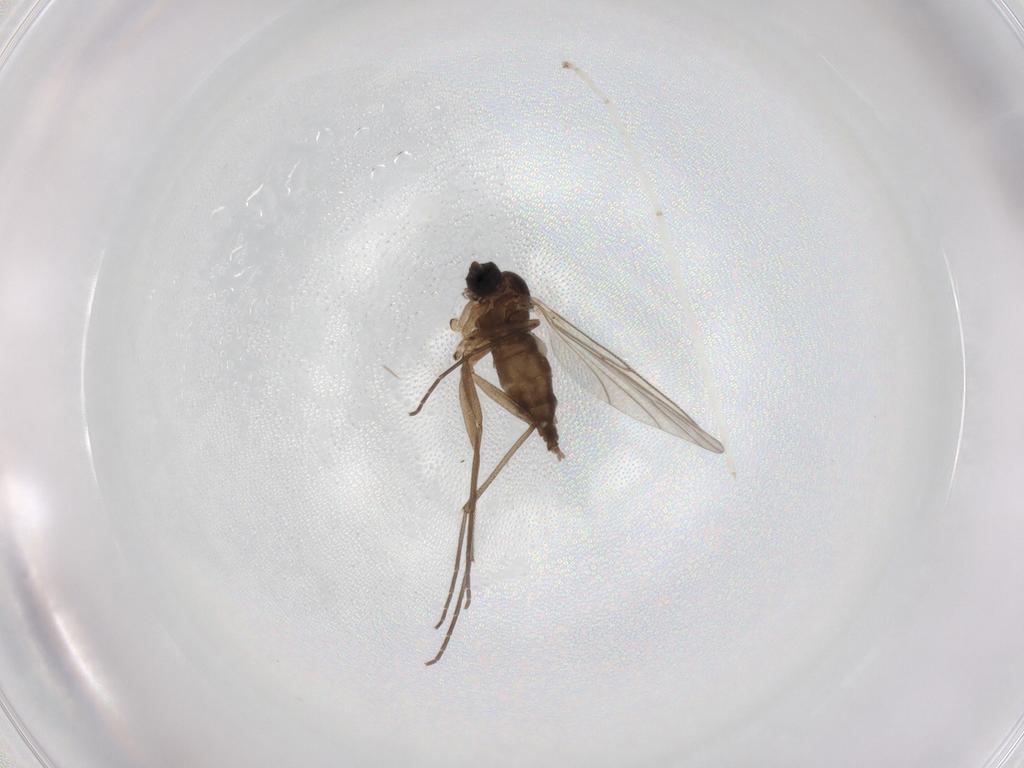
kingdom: Animalia
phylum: Arthropoda
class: Insecta
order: Diptera
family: Sciaridae
